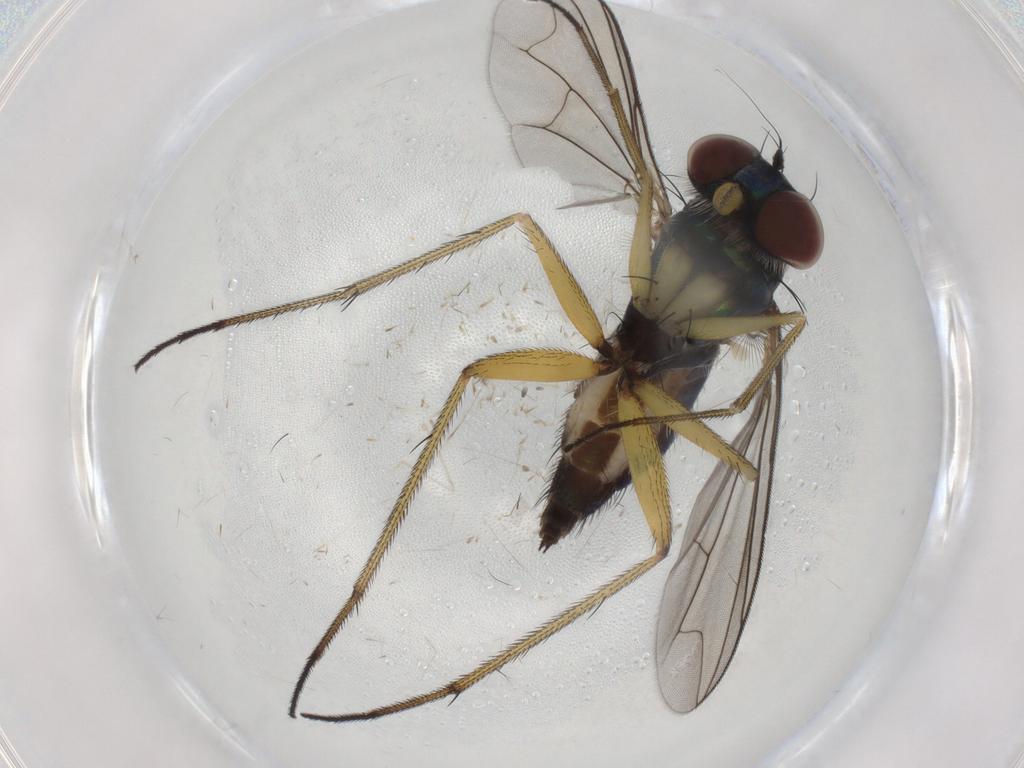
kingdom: Animalia
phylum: Arthropoda
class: Insecta
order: Diptera
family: Dolichopodidae
